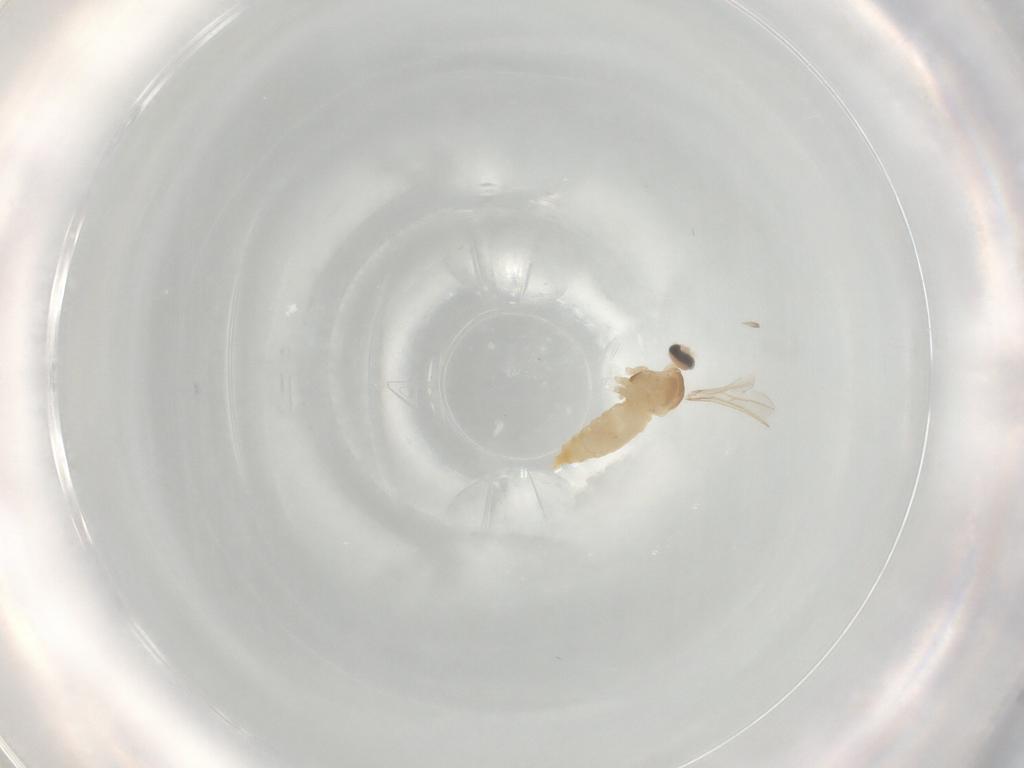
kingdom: Animalia
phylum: Arthropoda
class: Insecta
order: Diptera
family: Cecidomyiidae
